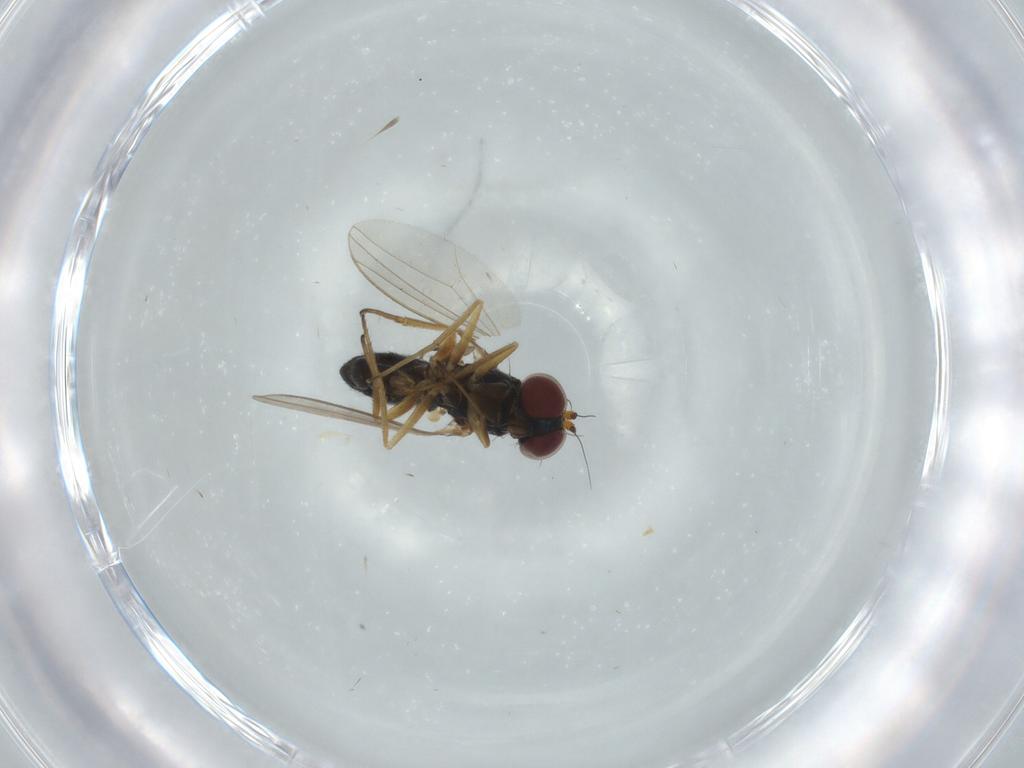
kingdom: Animalia
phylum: Arthropoda
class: Insecta
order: Diptera
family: Dolichopodidae
